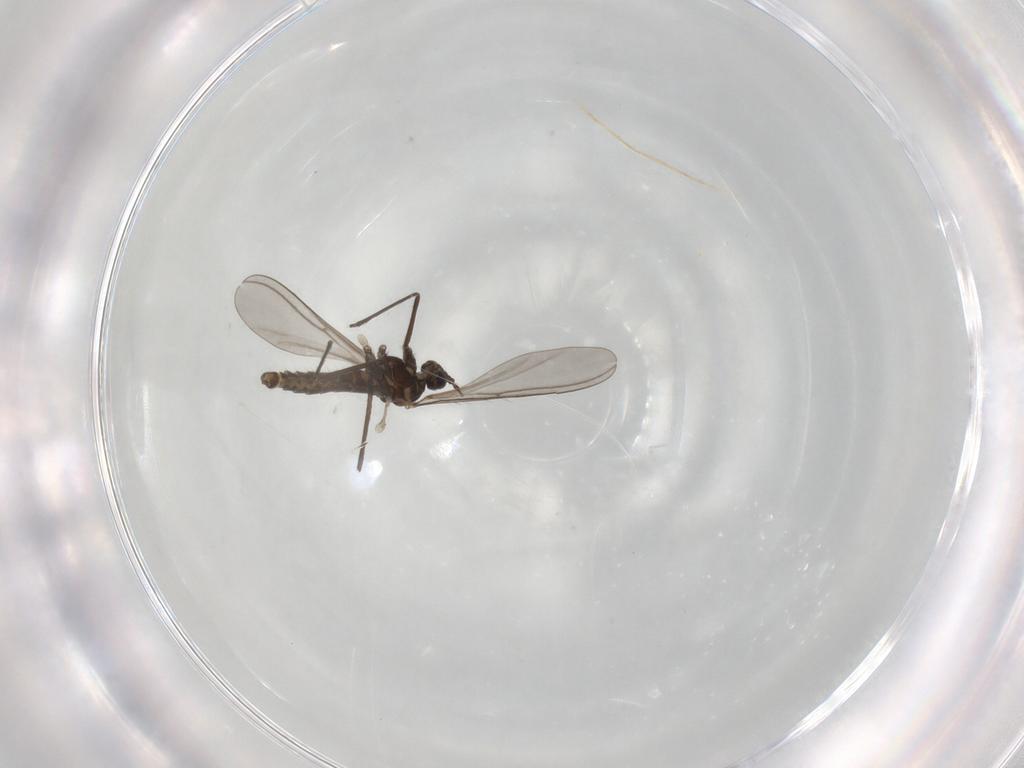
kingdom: Animalia
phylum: Arthropoda
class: Insecta
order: Diptera
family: Cecidomyiidae
